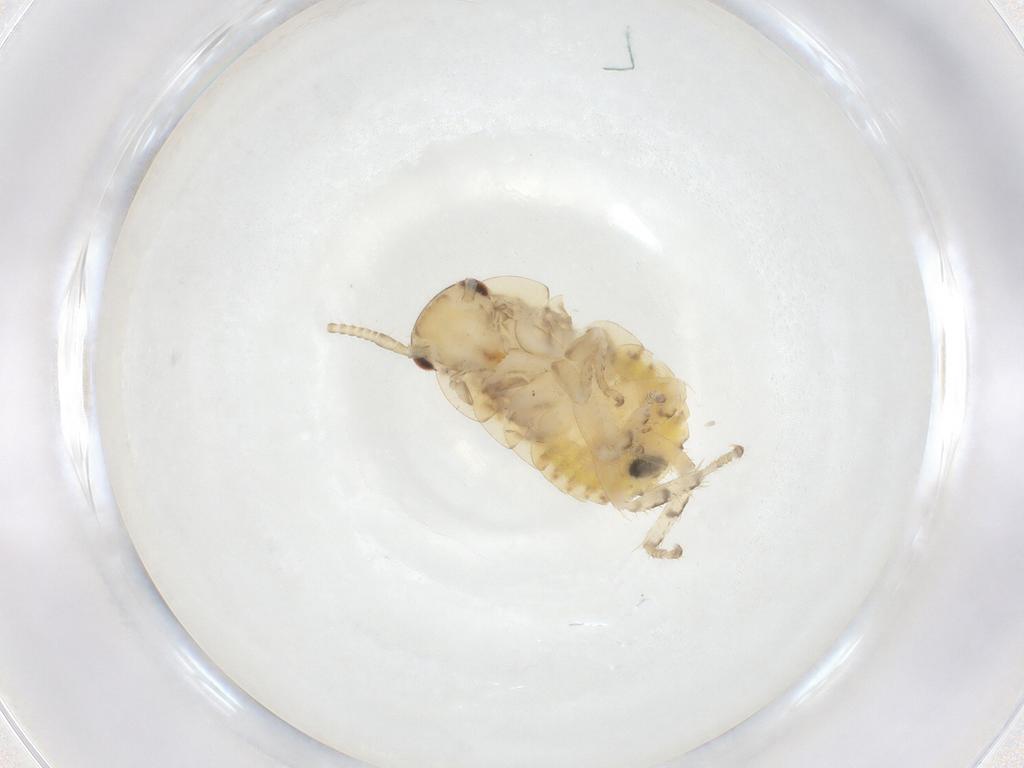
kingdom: Animalia
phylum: Arthropoda
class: Insecta
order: Blattodea
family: Ectobiidae
